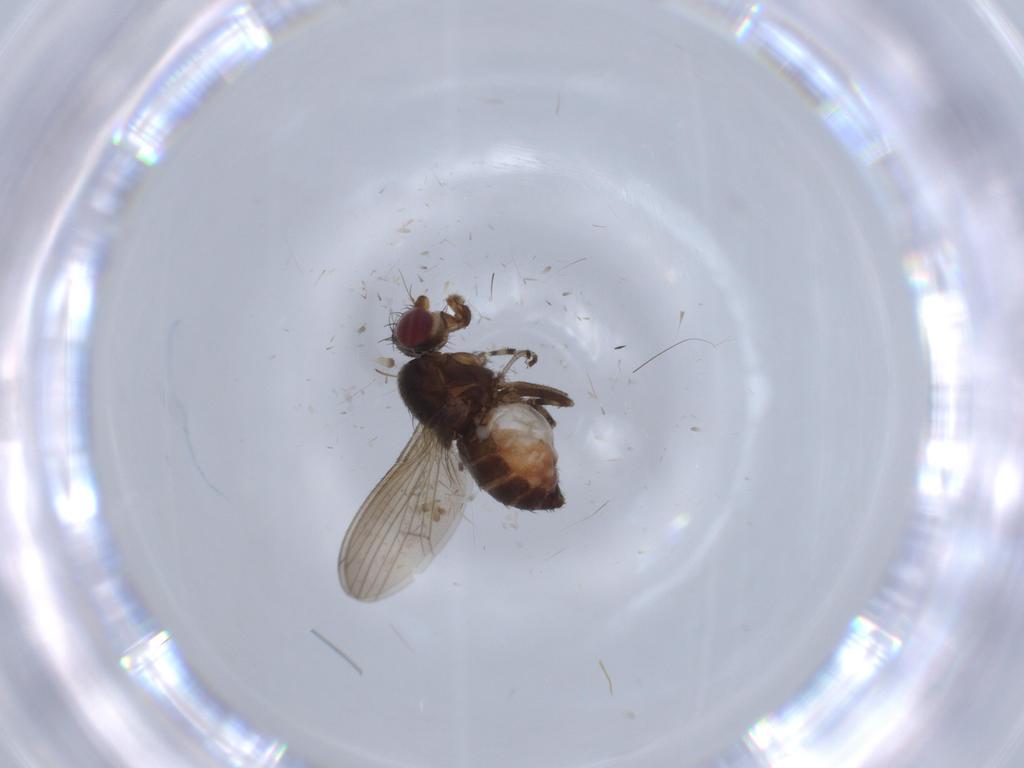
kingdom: Animalia
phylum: Arthropoda
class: Insecta
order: Diptera
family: Heleomyzidae
